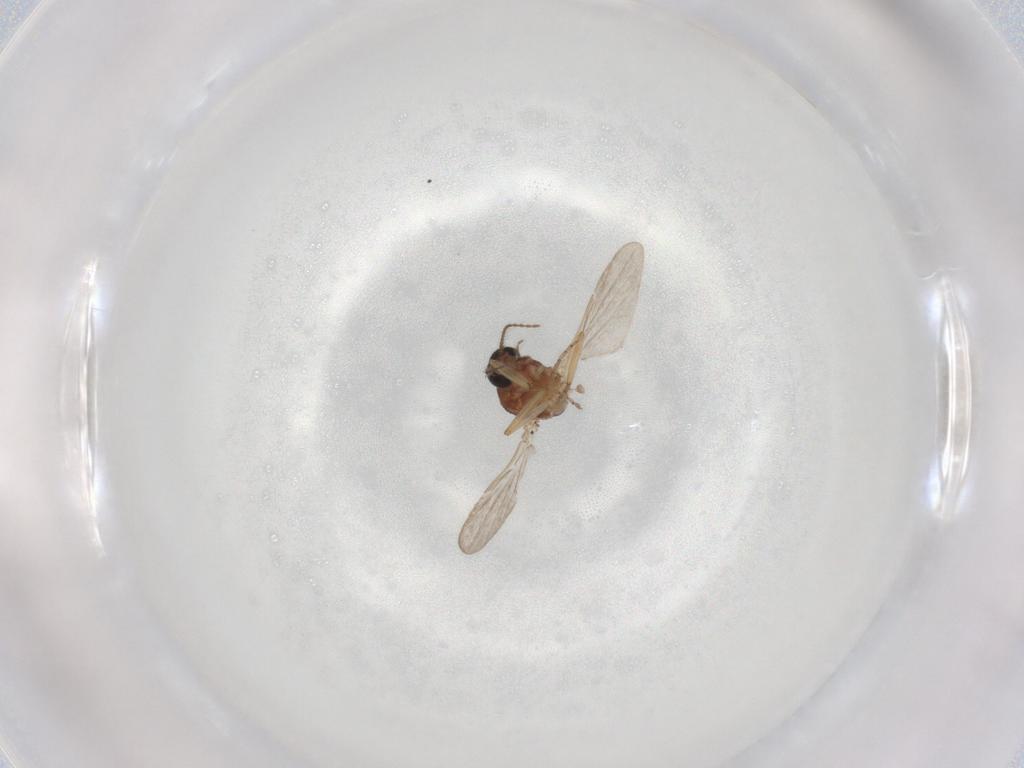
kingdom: Animalia
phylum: Arthropoda
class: Insecta
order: Diptera
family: Ceratopogonidae
